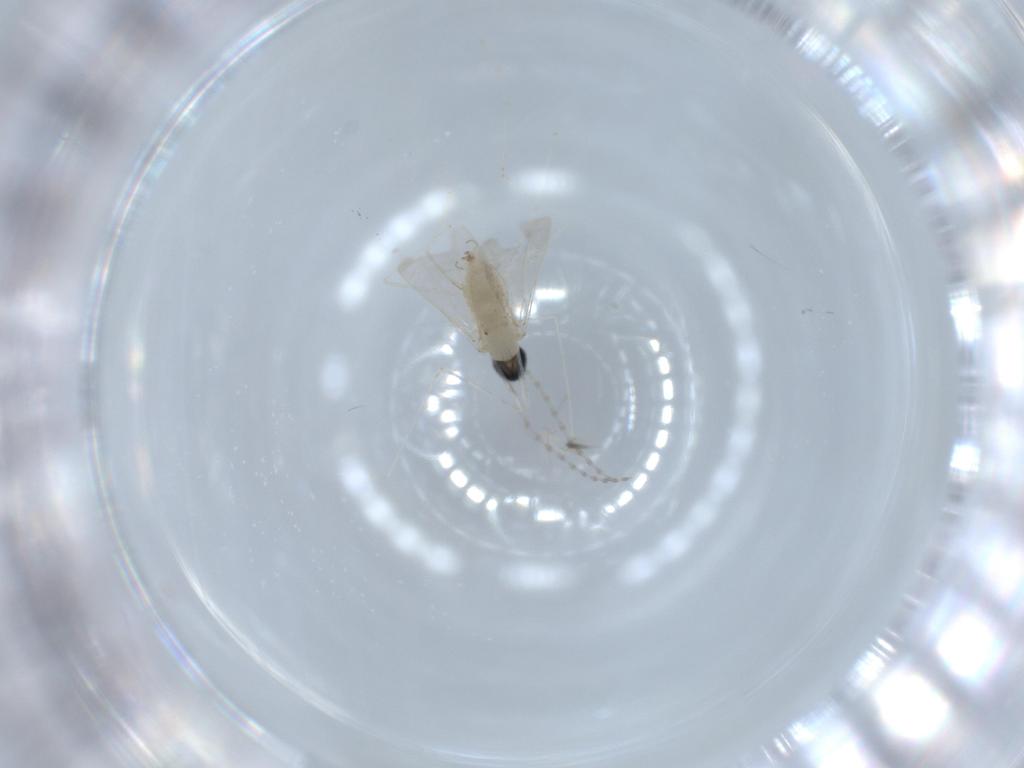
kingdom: Animalia
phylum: Arthropoda
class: Insecta
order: Diptera
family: Cecidomyiidae
